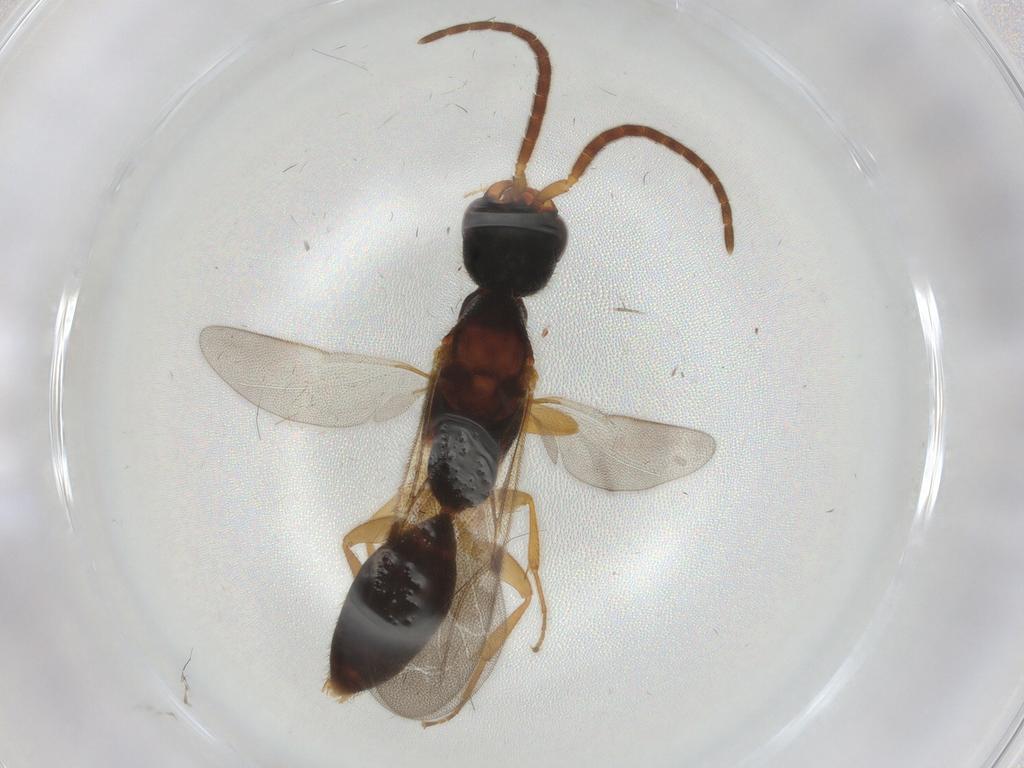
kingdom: Animalia
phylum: Arthropoda
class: Insecta
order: Hymenoptera
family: Bethylidae
